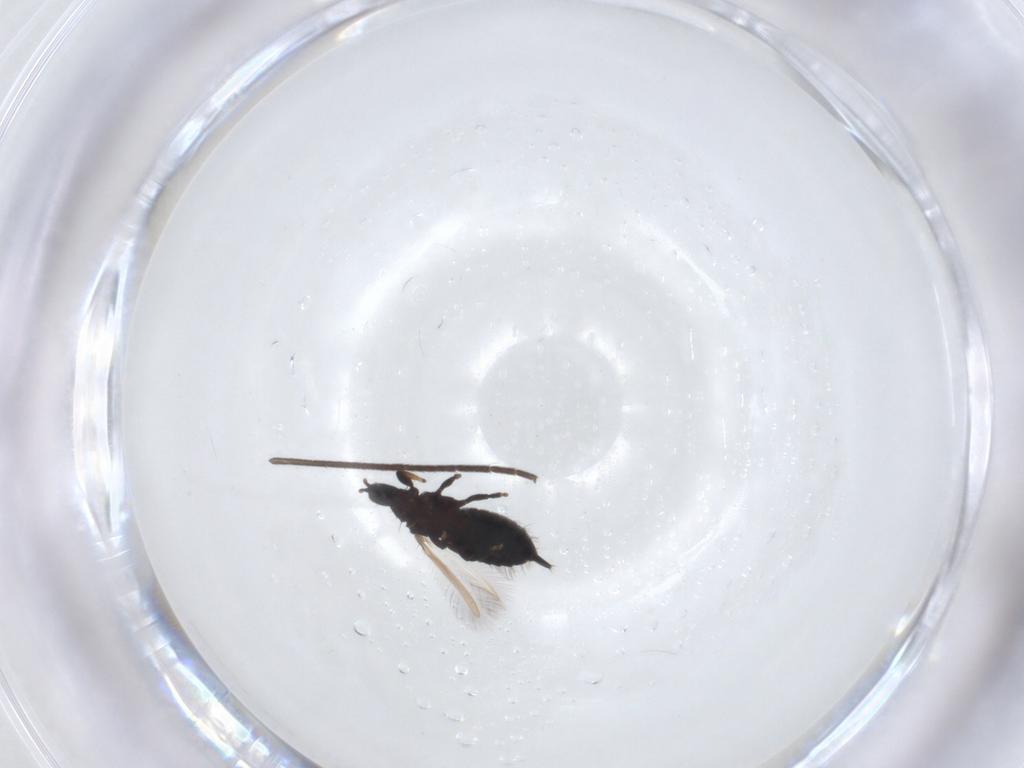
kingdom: Animalia
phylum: Arthropoda
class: Insecta
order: Thysanoptera
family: Phlaeothripidae
